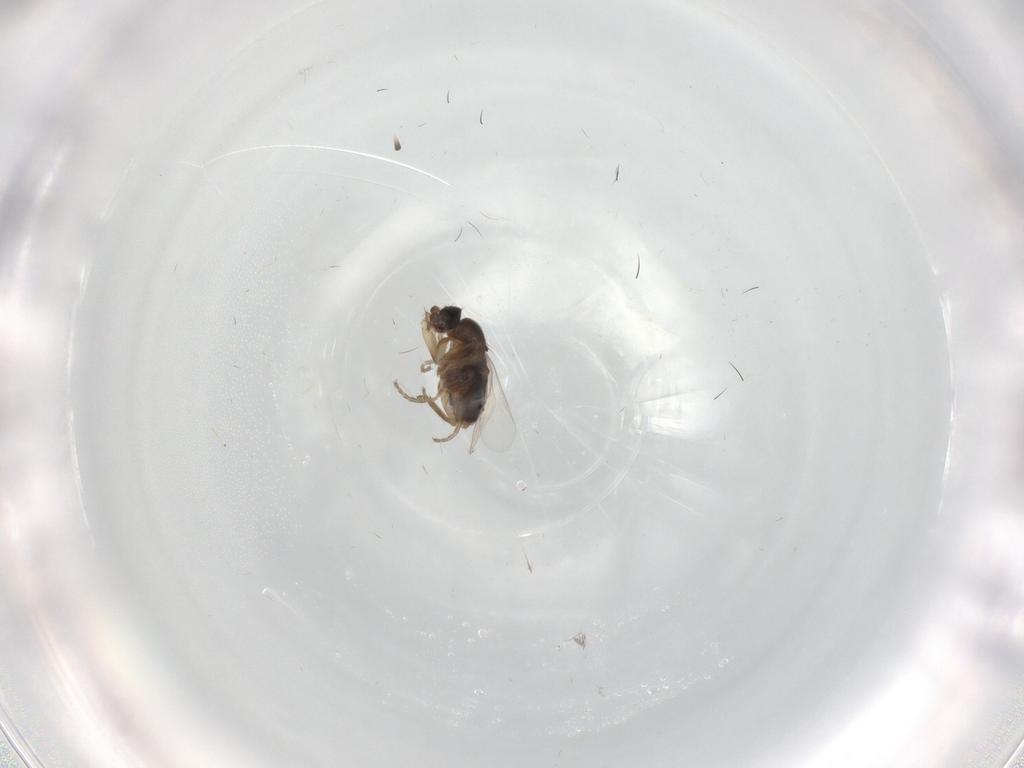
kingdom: Animalia
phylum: Arthropoda
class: Insecta
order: Diptera
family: Phoridae
